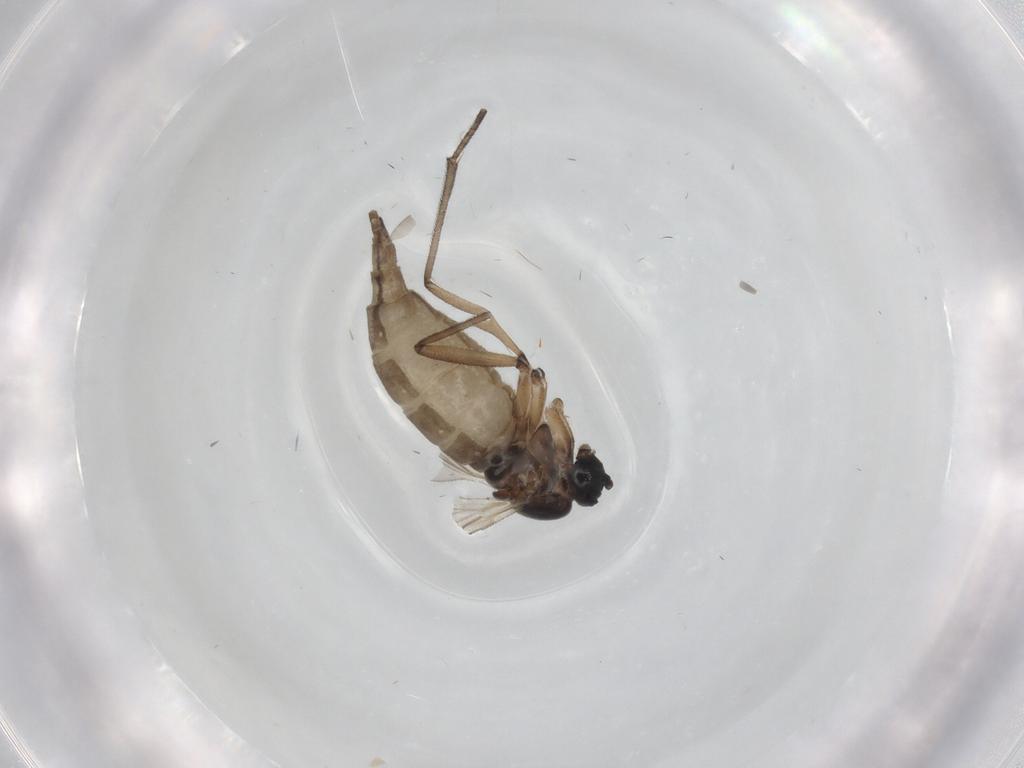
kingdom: Animalia
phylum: Arthropoda
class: Insecta
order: Diptera
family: Sciaridae
